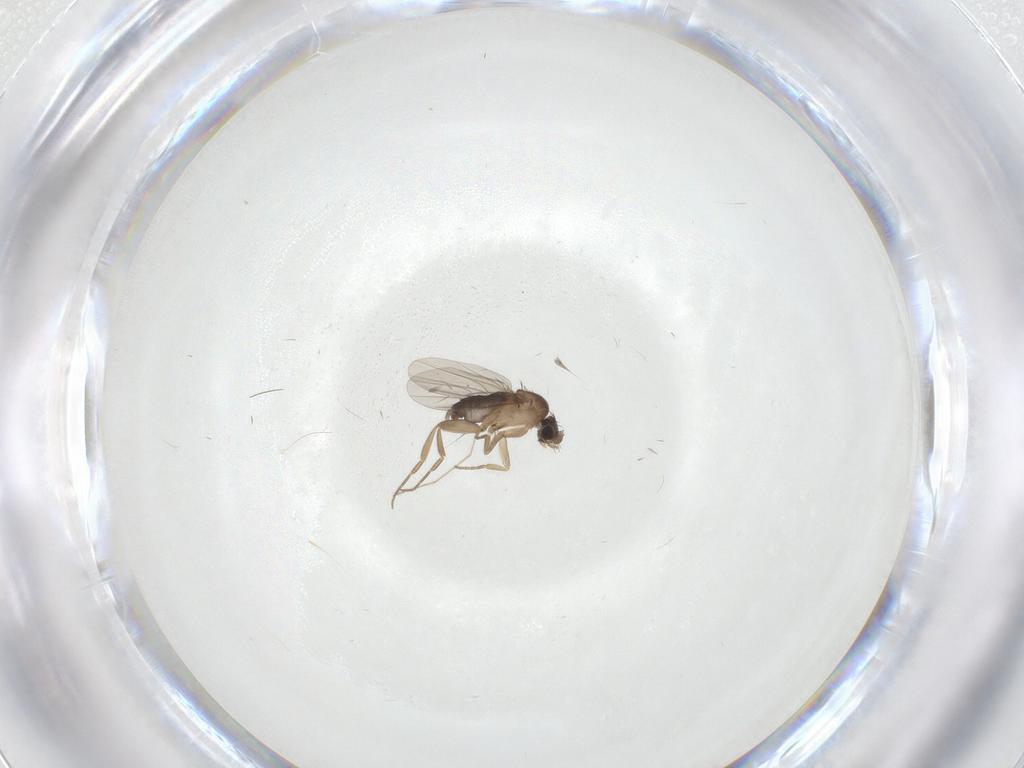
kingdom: Animalia
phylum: Arthropoda
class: Insecta
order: Diptera
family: Chironomidae
